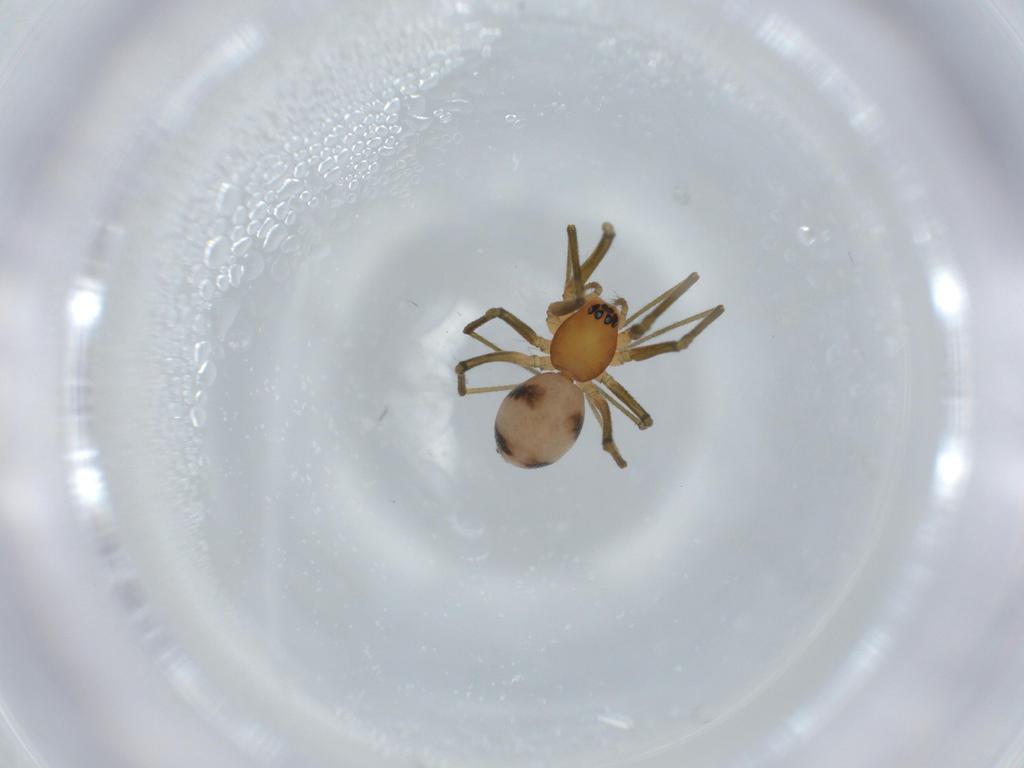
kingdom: Animalia
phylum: Arthropoda
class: Arachnida
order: Araneae
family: Linyphiidae
